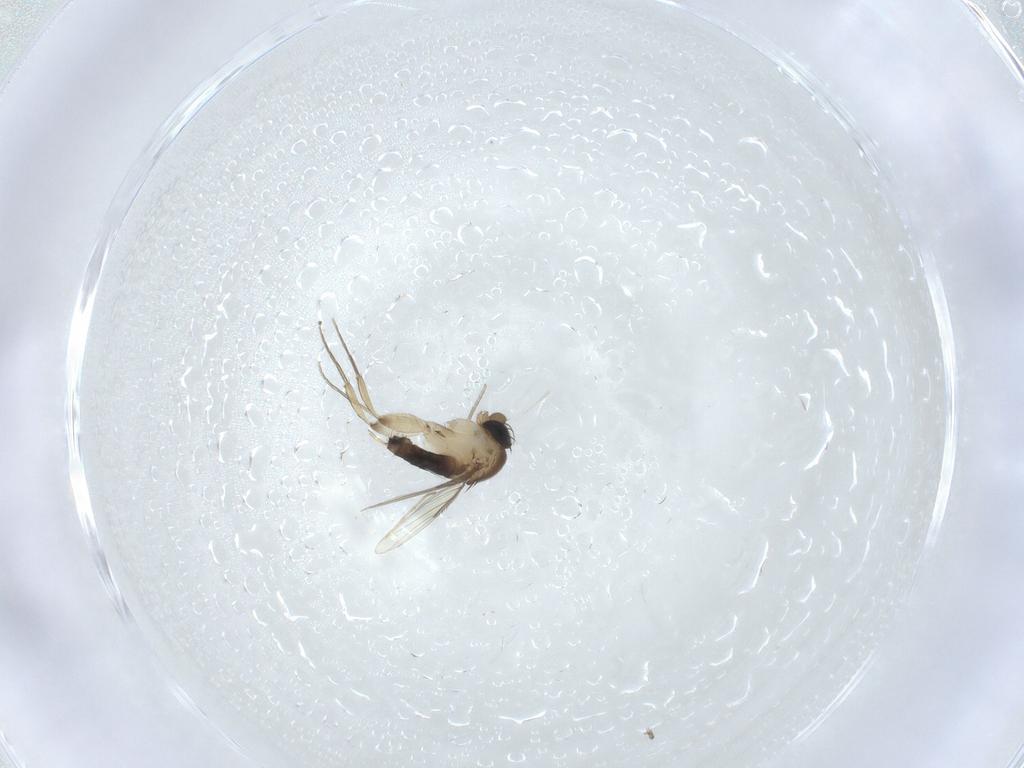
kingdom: Animalia
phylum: Arthropoda
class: Insecta
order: Diptera
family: Phoridae
